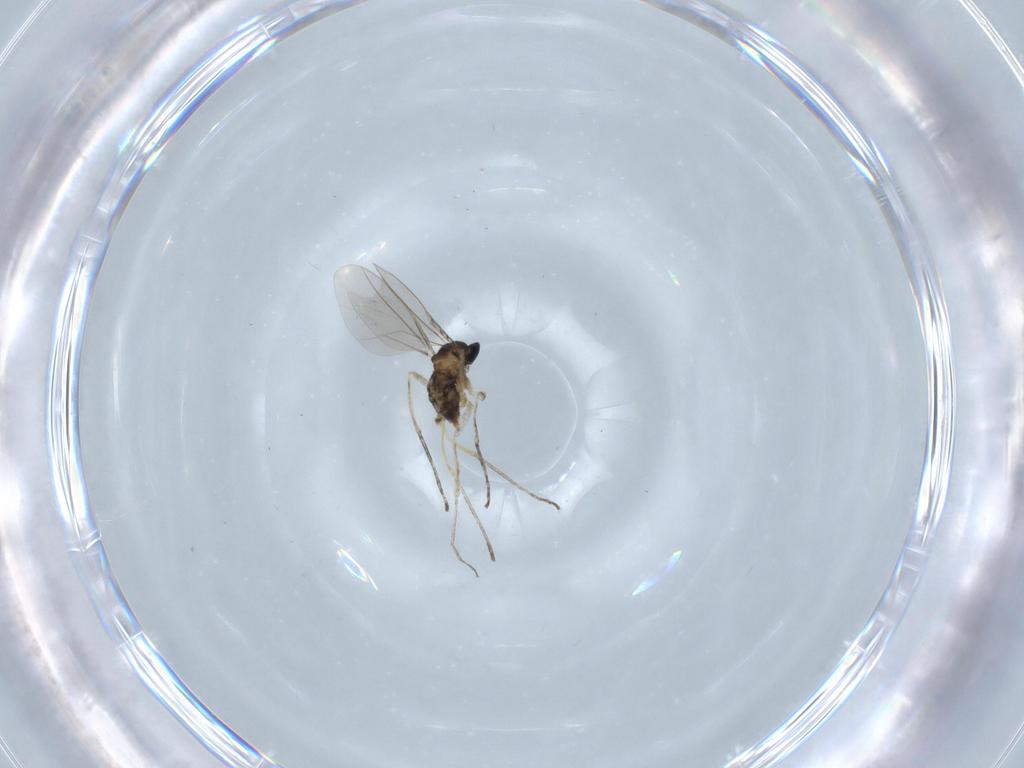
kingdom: Animalia
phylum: Arthropoda
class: Insecta
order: Diptera
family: Cecidomyiidae
